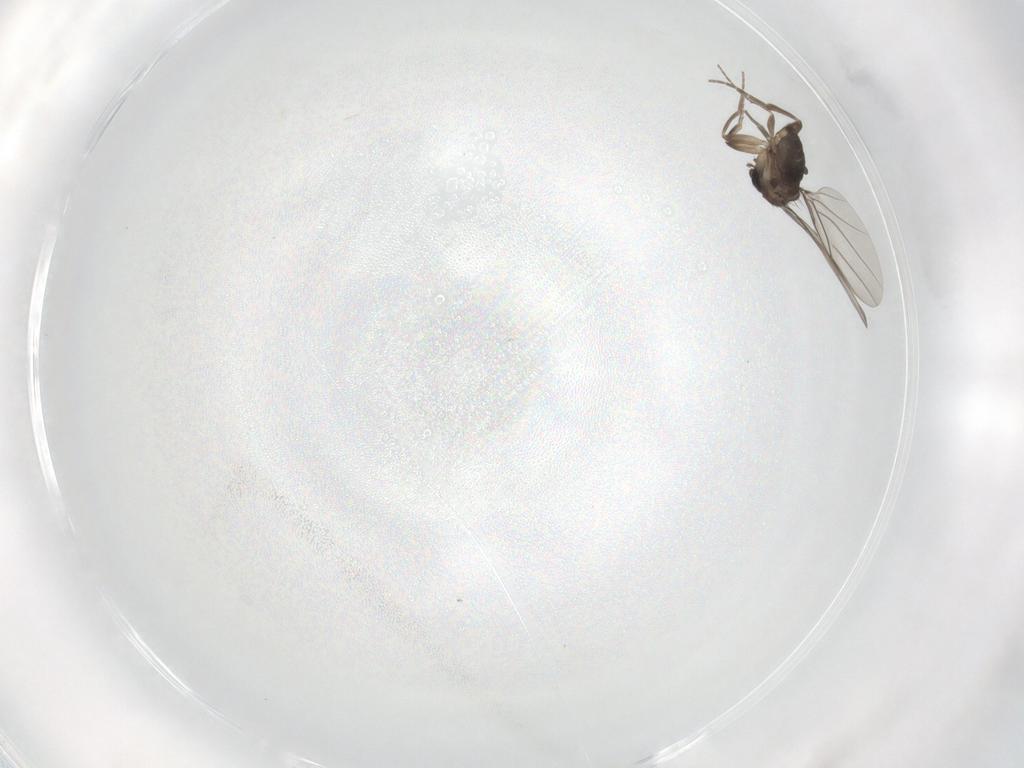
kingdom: Animalia
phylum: Arthropoda
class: Insecta
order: Diptera
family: Phoridae
